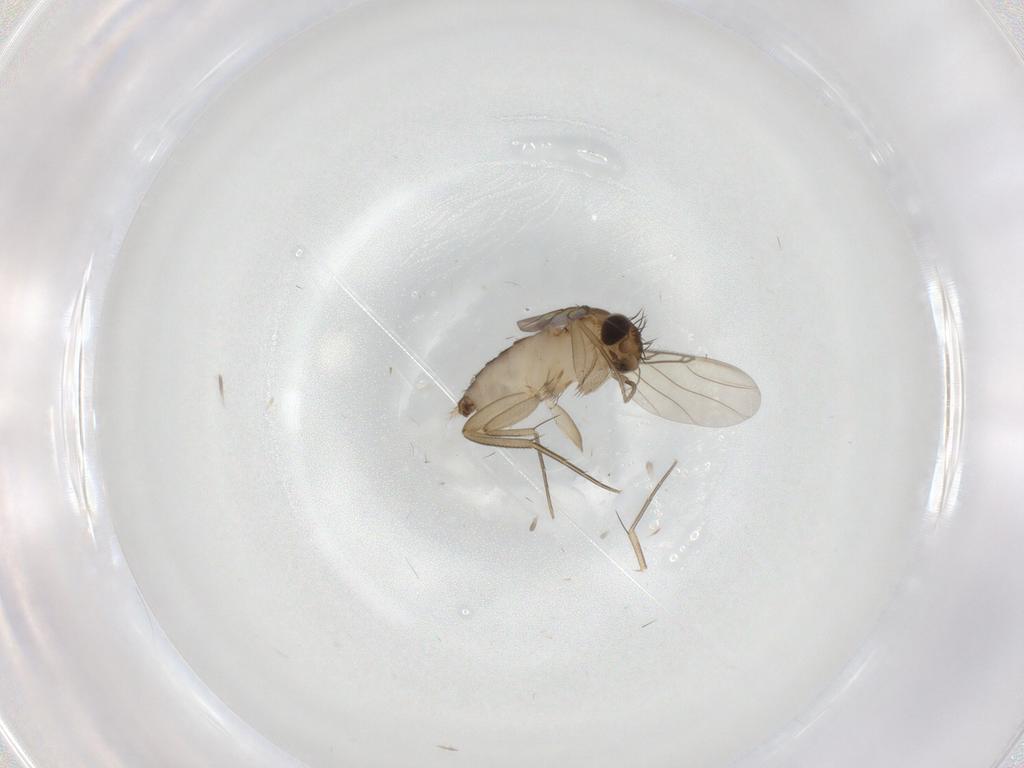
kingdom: Animalia
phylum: Arthropoda
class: Insecta
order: Diptera
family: Phoridae
